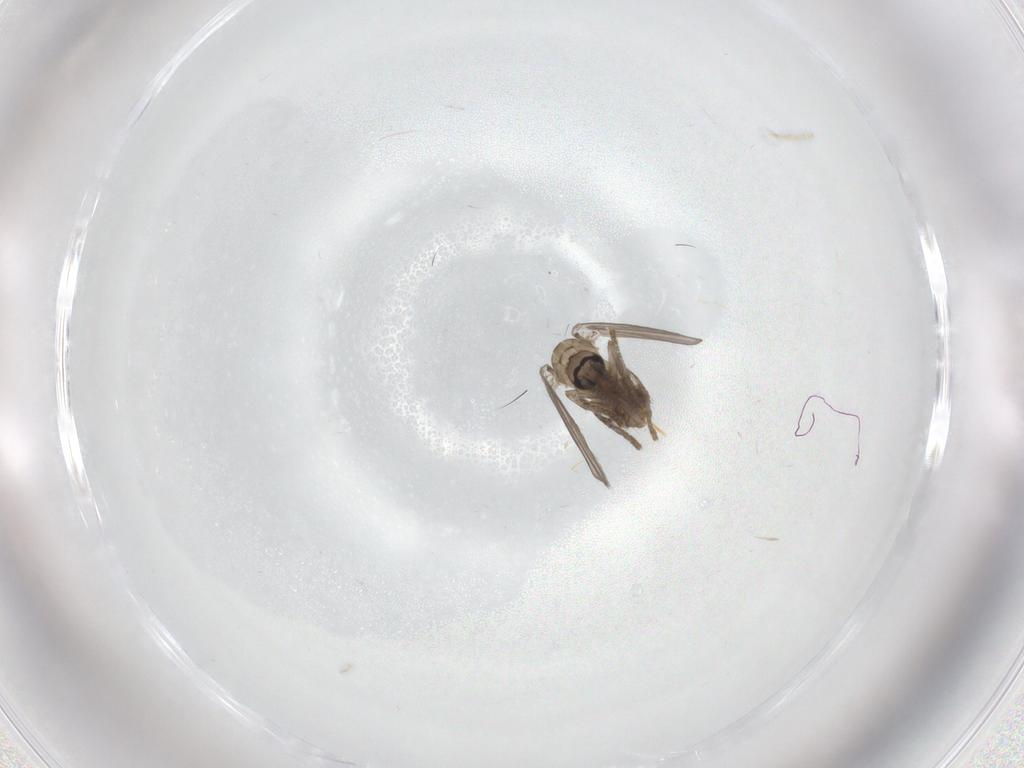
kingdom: Animalia
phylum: Arthropoda
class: Insecta
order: Diptera
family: Psychodidae
